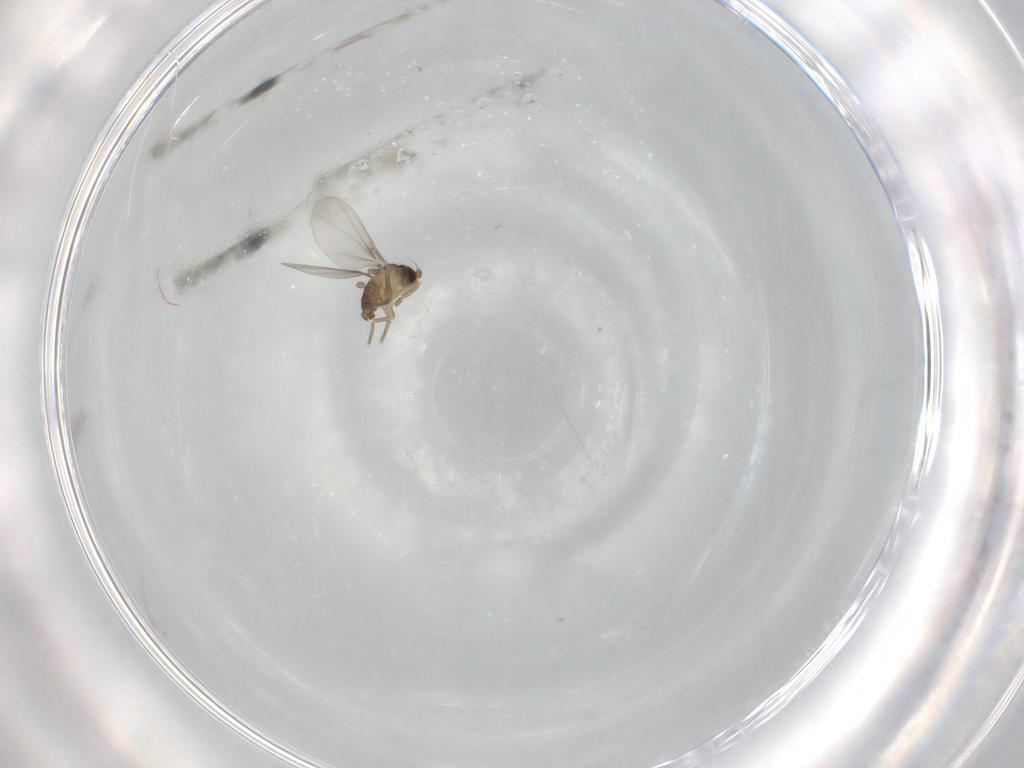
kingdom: Animalia
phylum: Arthropoda
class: Insecta
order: Diptera
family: Phoridae
